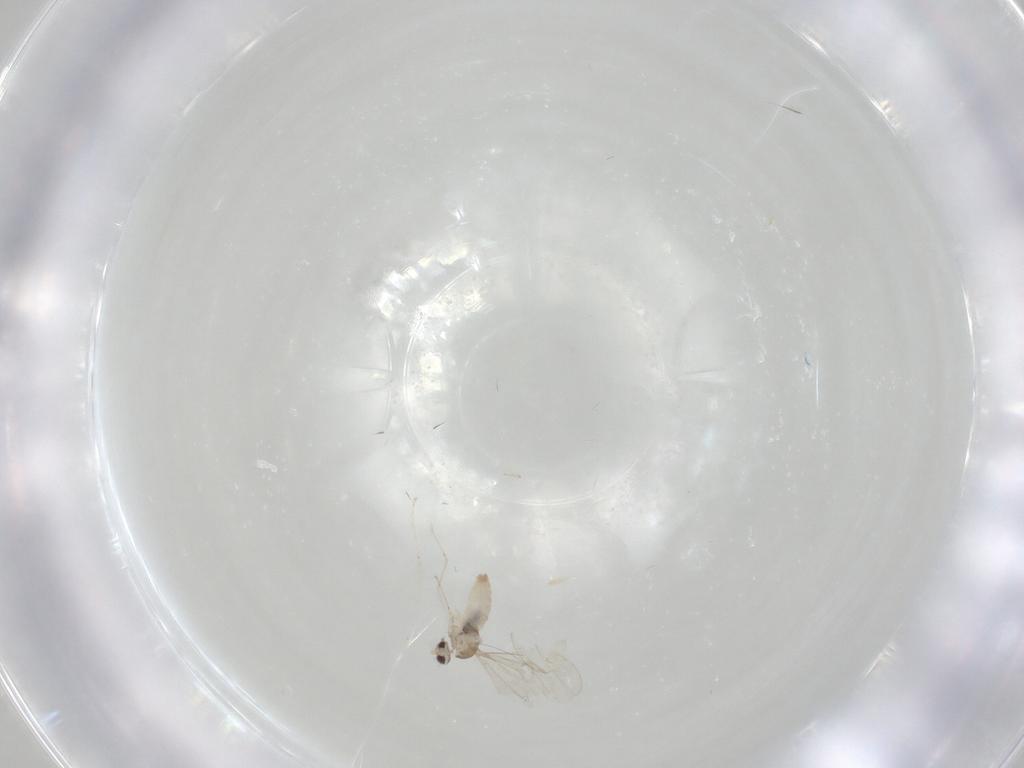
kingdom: Animalia
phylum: Arthropoda
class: Insecta
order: Diptera
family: Cecidomyiidae
